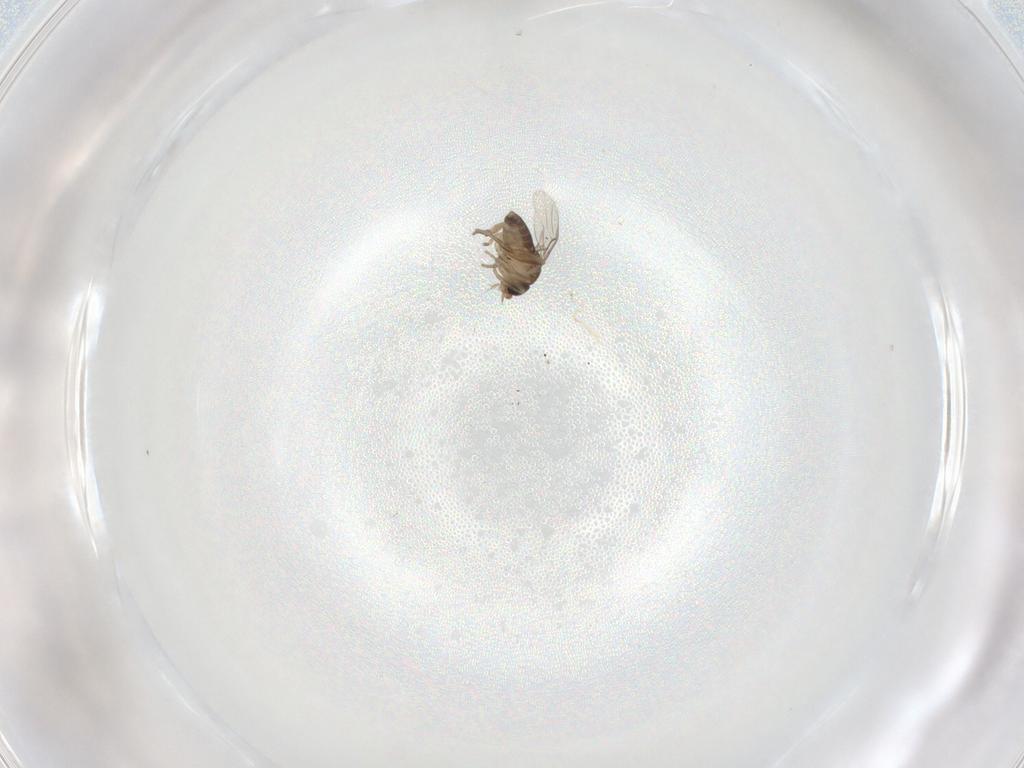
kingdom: Animalia
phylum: Arthropoda
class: Insecta
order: Diptera
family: Phoridae
